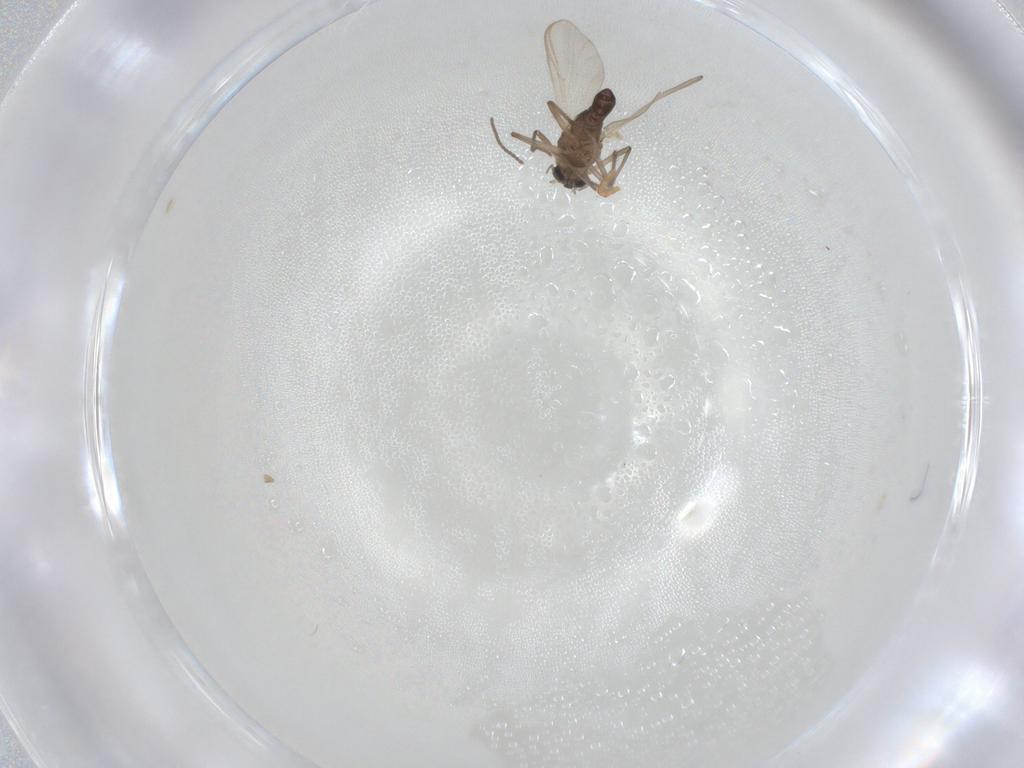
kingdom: Animalia
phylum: Arthropoda
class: Insecta
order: Diptera
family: Chironomidae
